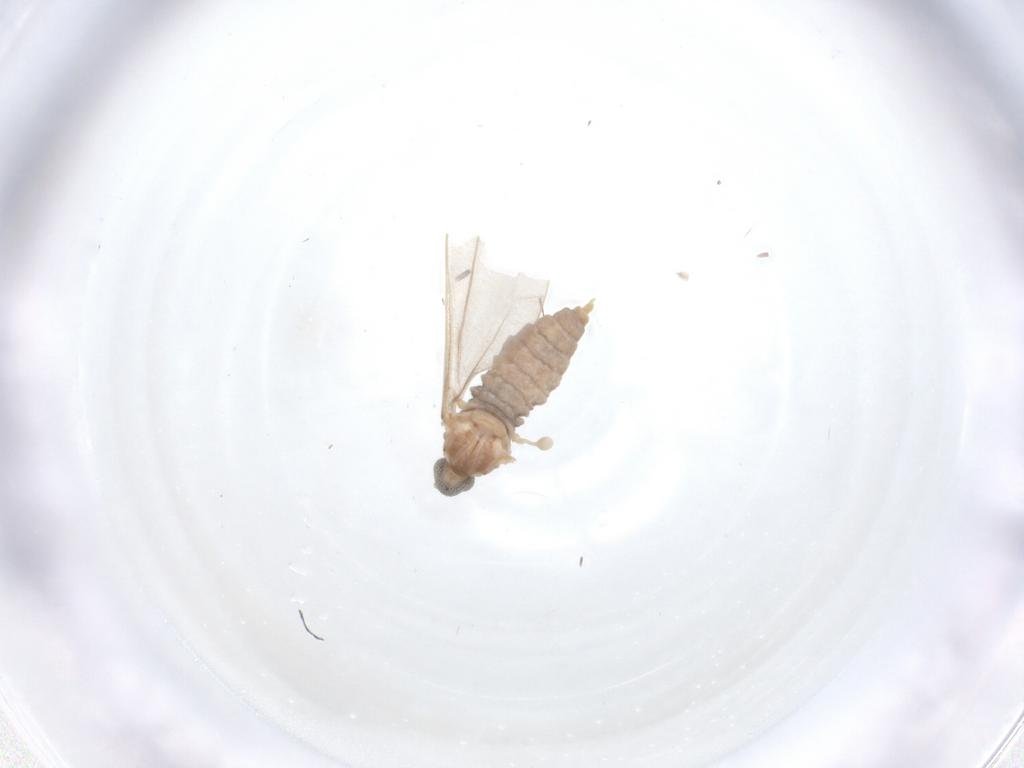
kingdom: Animalia
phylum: Arthropoda
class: Insecta
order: Diptera
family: Cecidomyiidae
